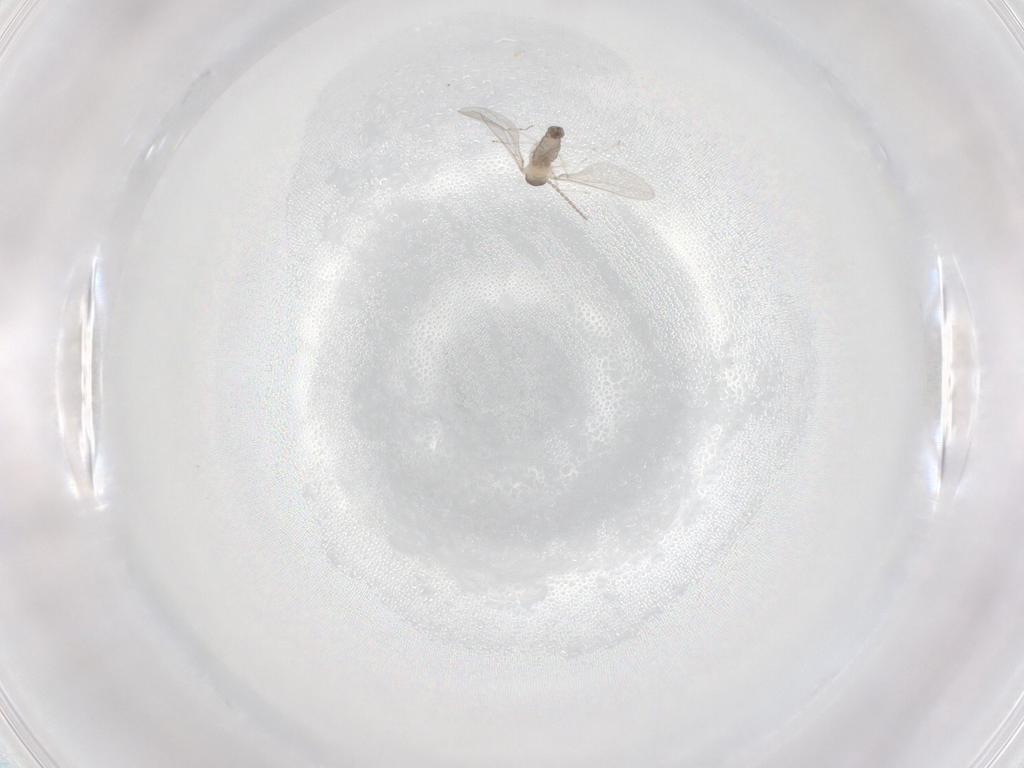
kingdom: Animalia
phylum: Arthropoda
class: Insecta
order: Diptera
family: Cecidomyiidae
